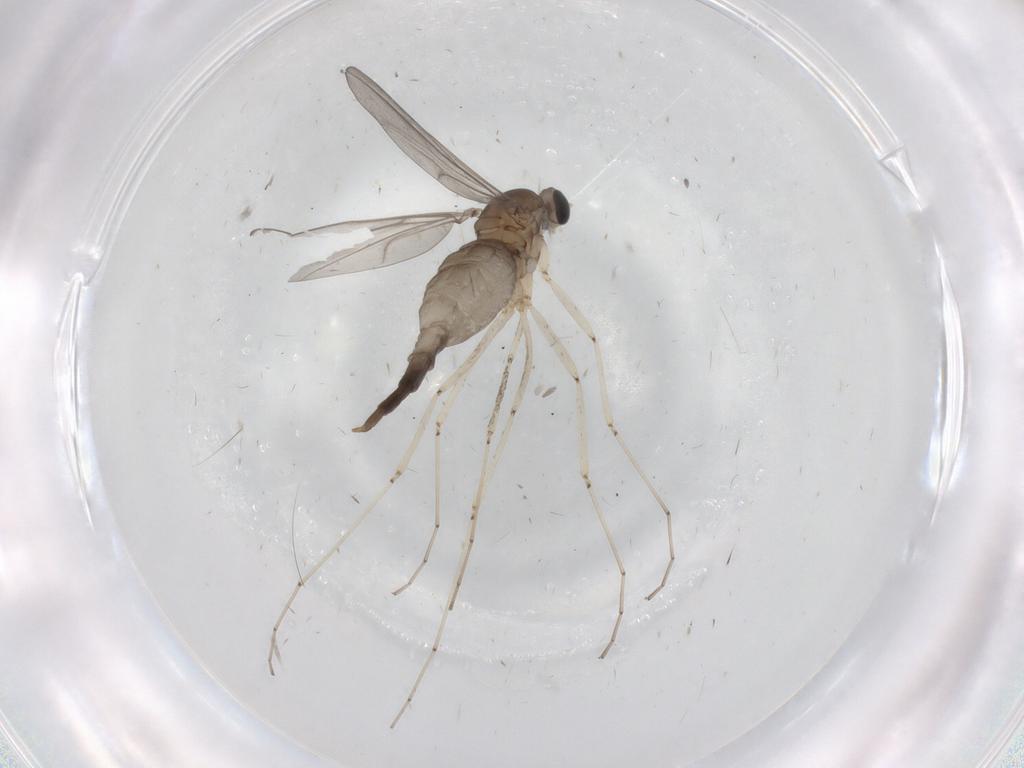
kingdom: Animalia
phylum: Arthropoda
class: Insecta
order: Diptera
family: Cecidomyiidae
